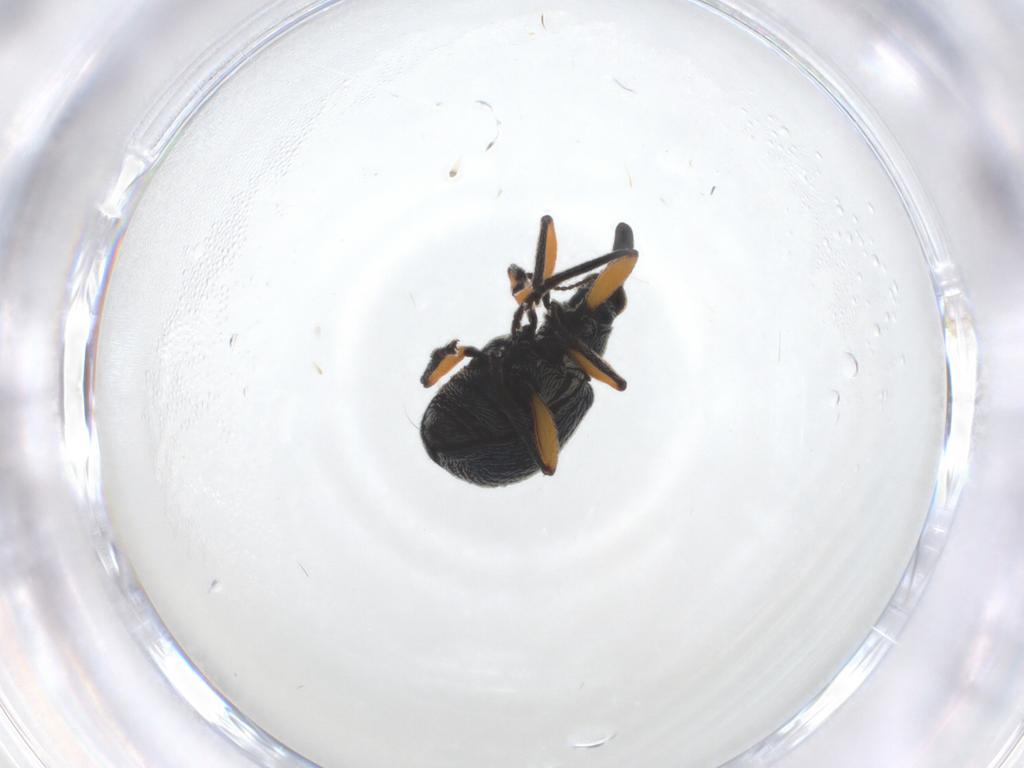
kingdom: Animalia
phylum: Arthropoda
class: Insecta
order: Coleoptera
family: Apionidae
